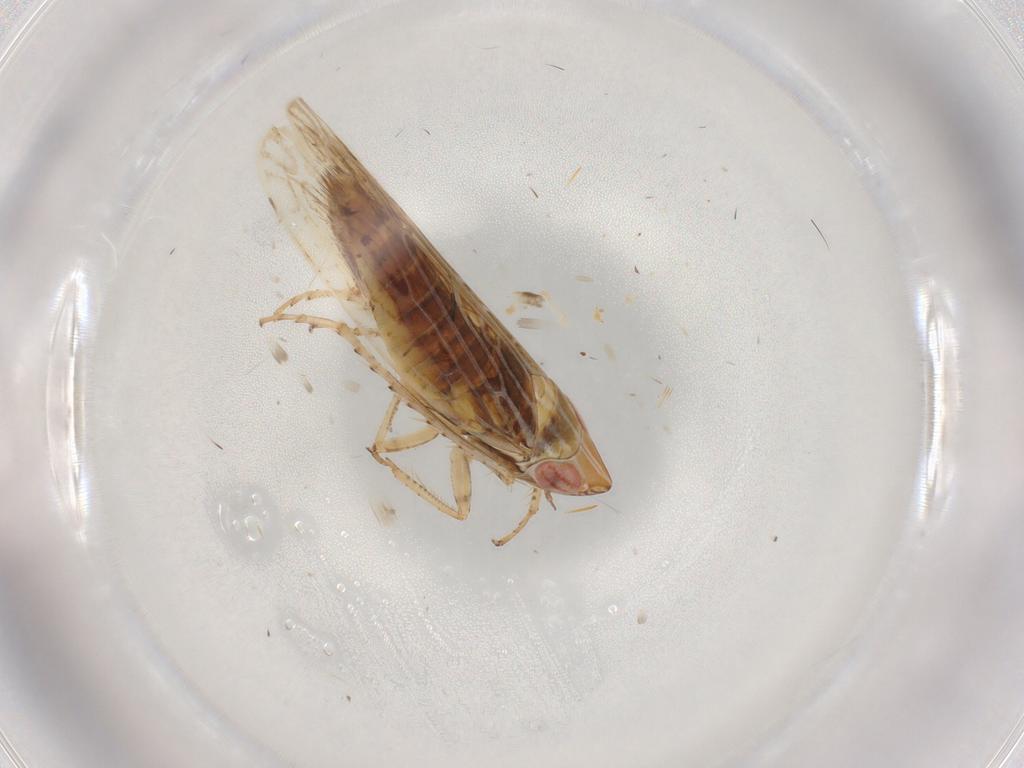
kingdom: Animalia
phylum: Arthropoda
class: Insecta
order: Hemiptera
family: Cicadellidae
